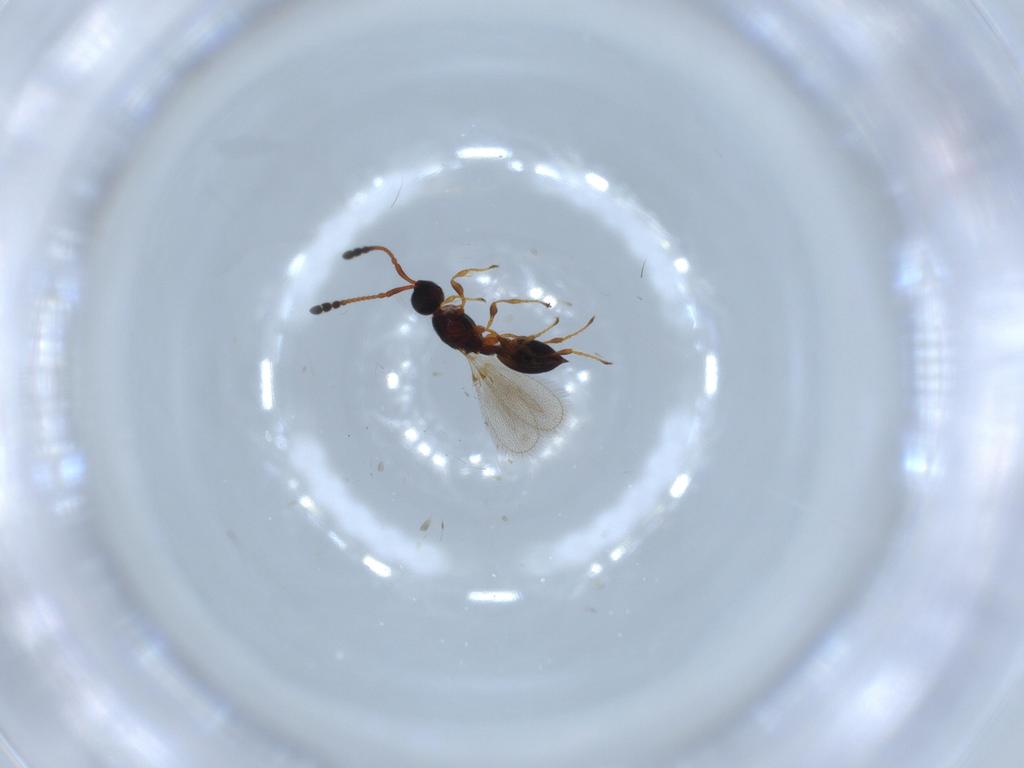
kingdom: Animalia
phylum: Arthropoda
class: Insecta
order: Hymenoptera
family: Diapriidae
